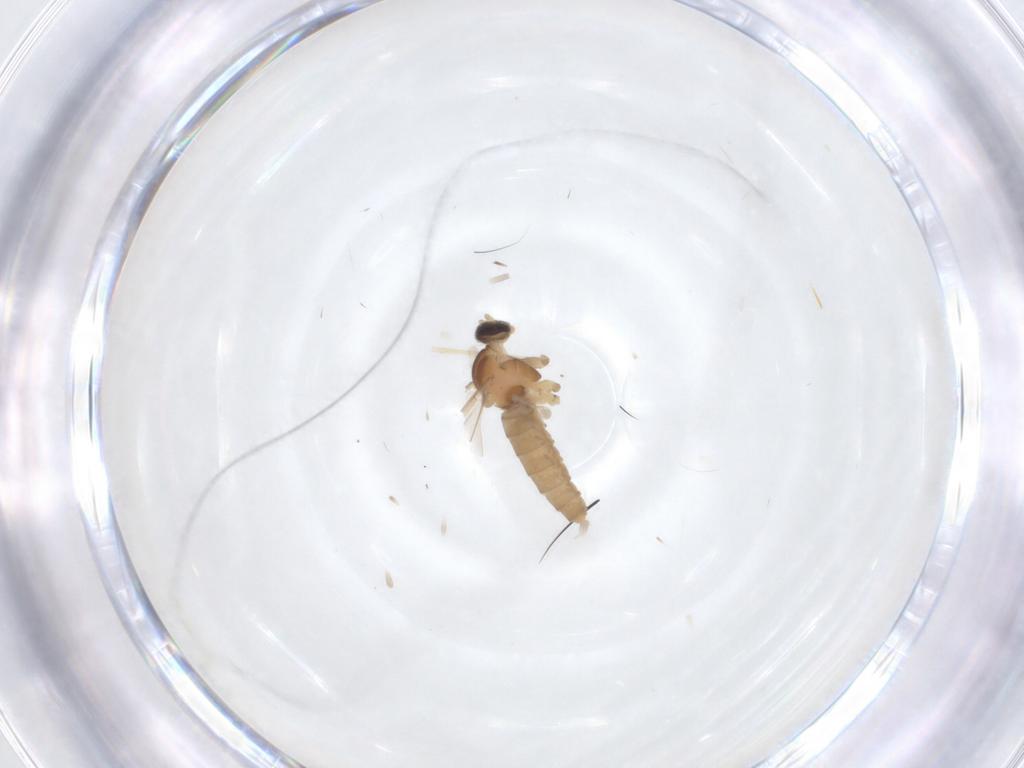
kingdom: Animalia
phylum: Arthropoda
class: Insecta
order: Diptera
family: Cecidomyiidae
